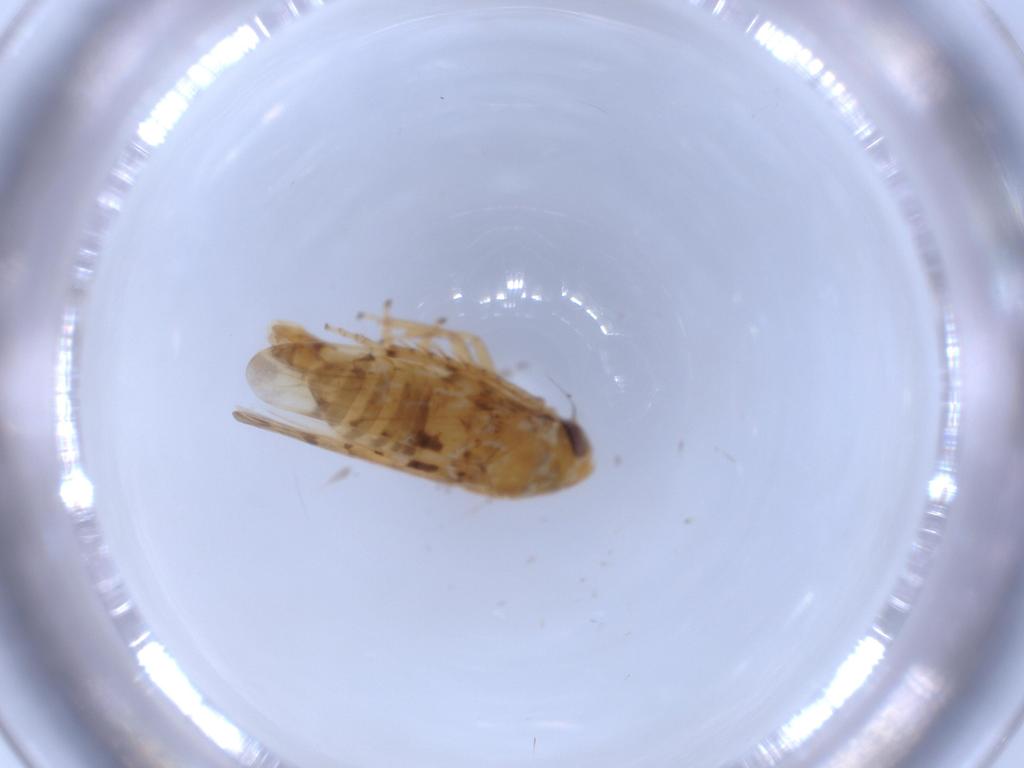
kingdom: Animalia
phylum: Arthropoda
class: Insecta
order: Hemiptera
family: Cicadellidae
